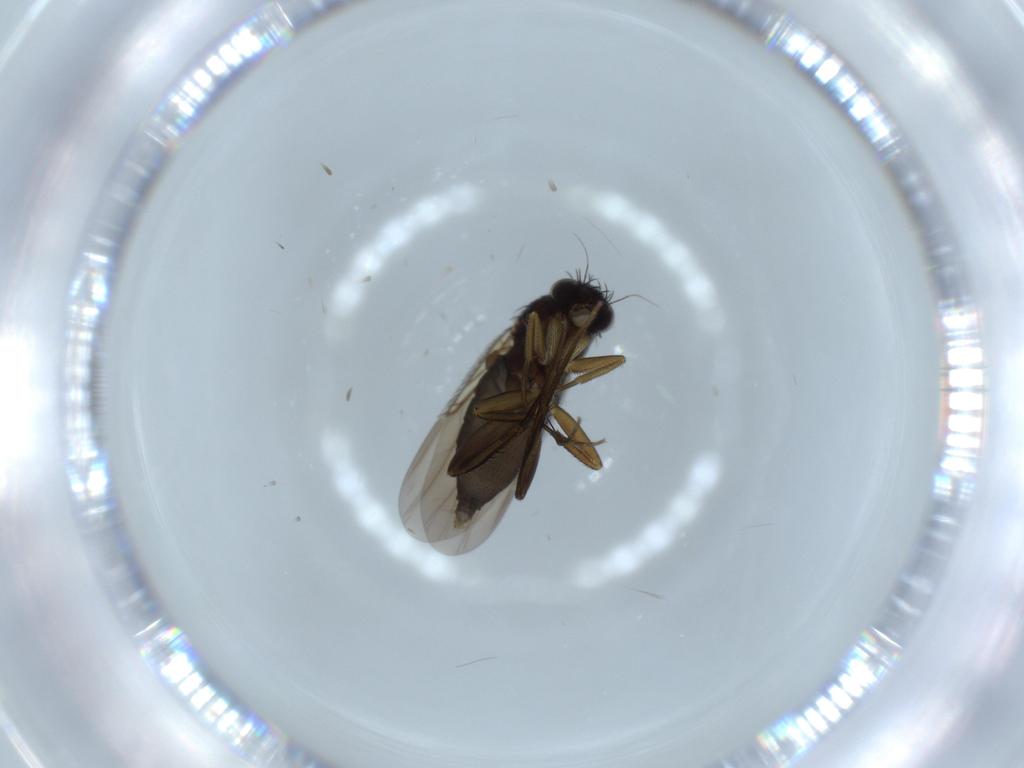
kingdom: Animalia
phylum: Arthropoda
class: Insecta
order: Diptera
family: Phoridae
